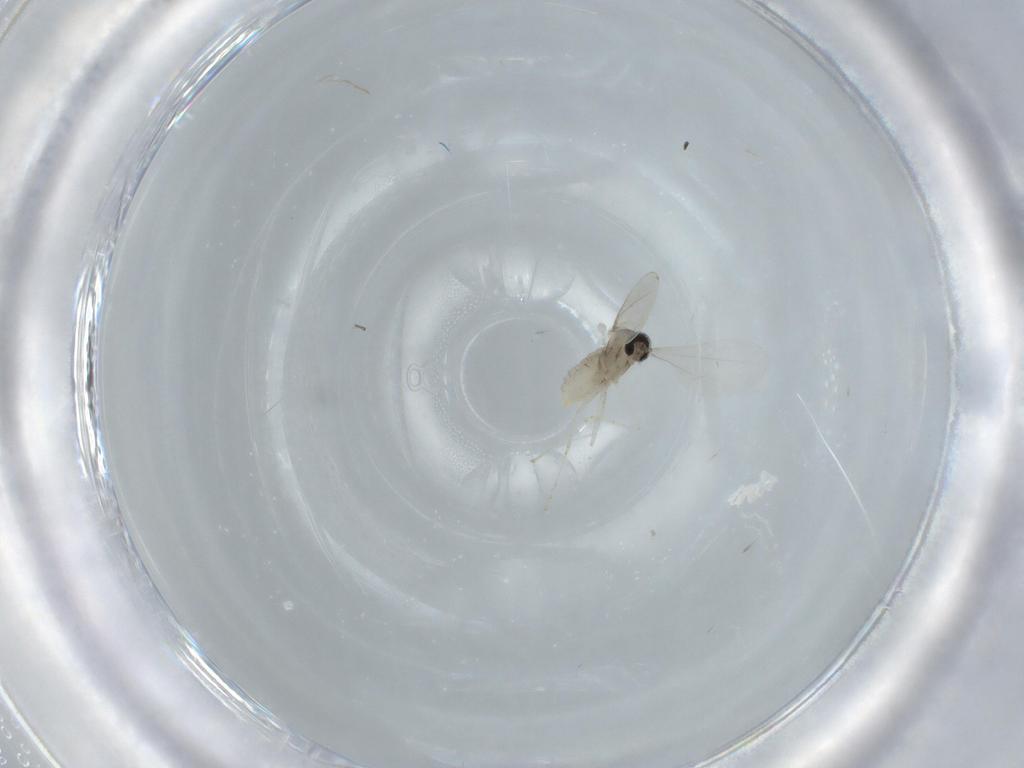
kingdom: Animalia
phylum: Arthropoda
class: Insecta
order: Diptera
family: Cecidomyiidae
